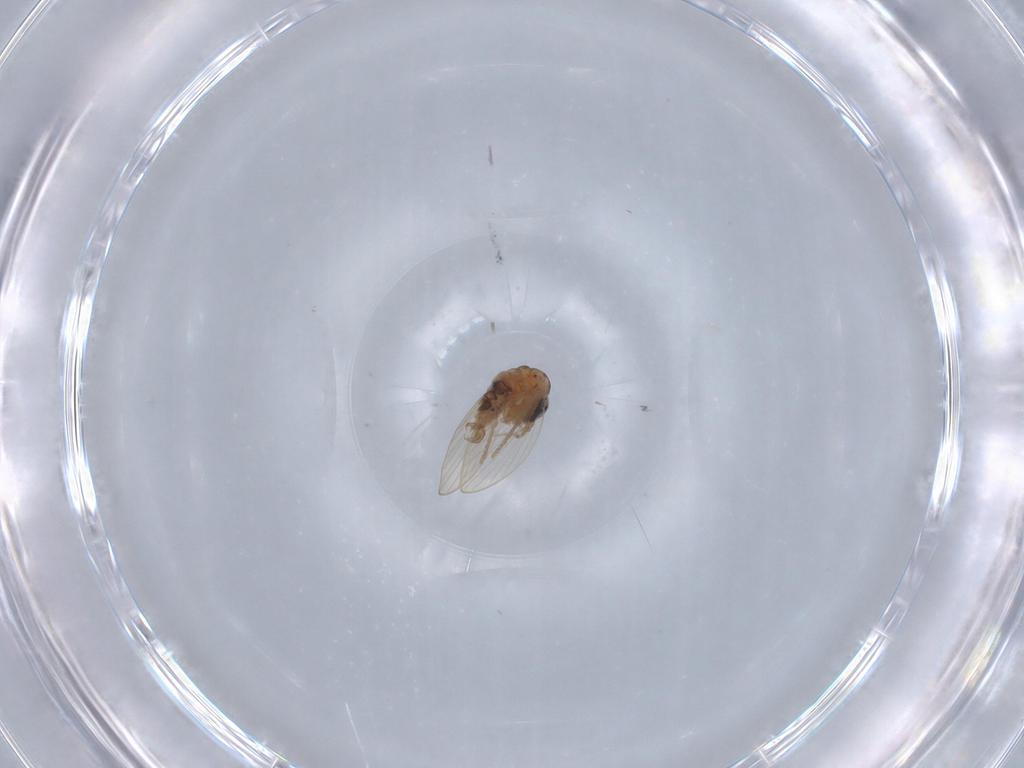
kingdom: Animalia
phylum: Arthropoda
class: Insecta
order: Diptera
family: Psychodidae
